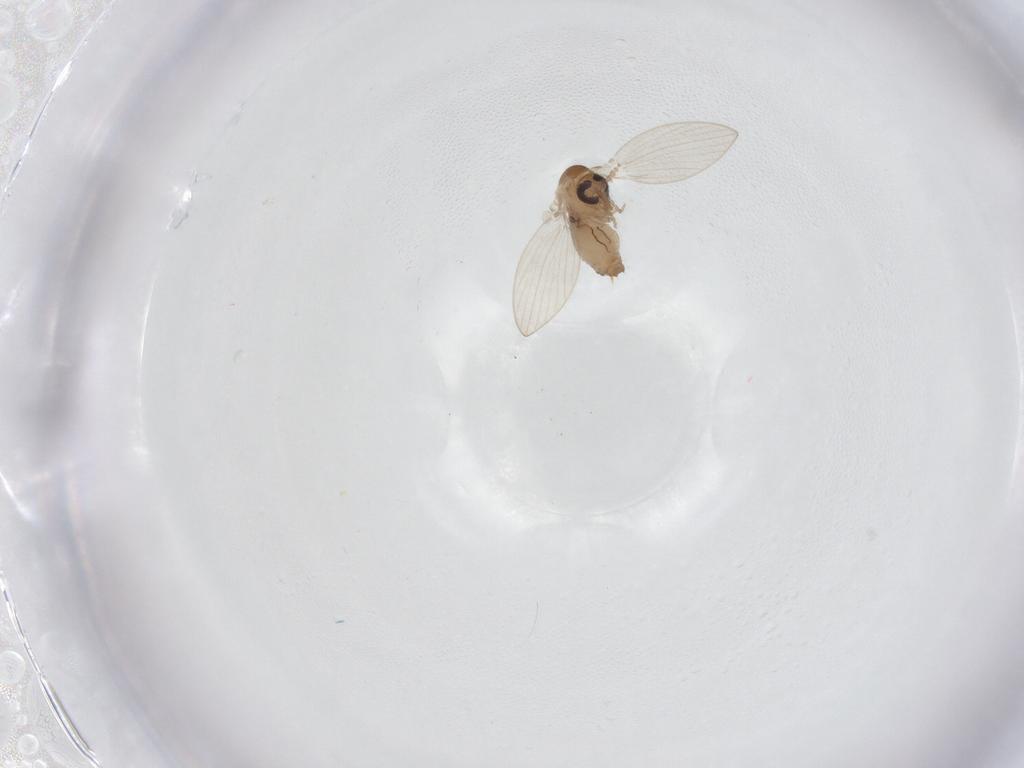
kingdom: Animalia
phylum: Arthropoda
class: Insecta
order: Diptera
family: Psychodidae
